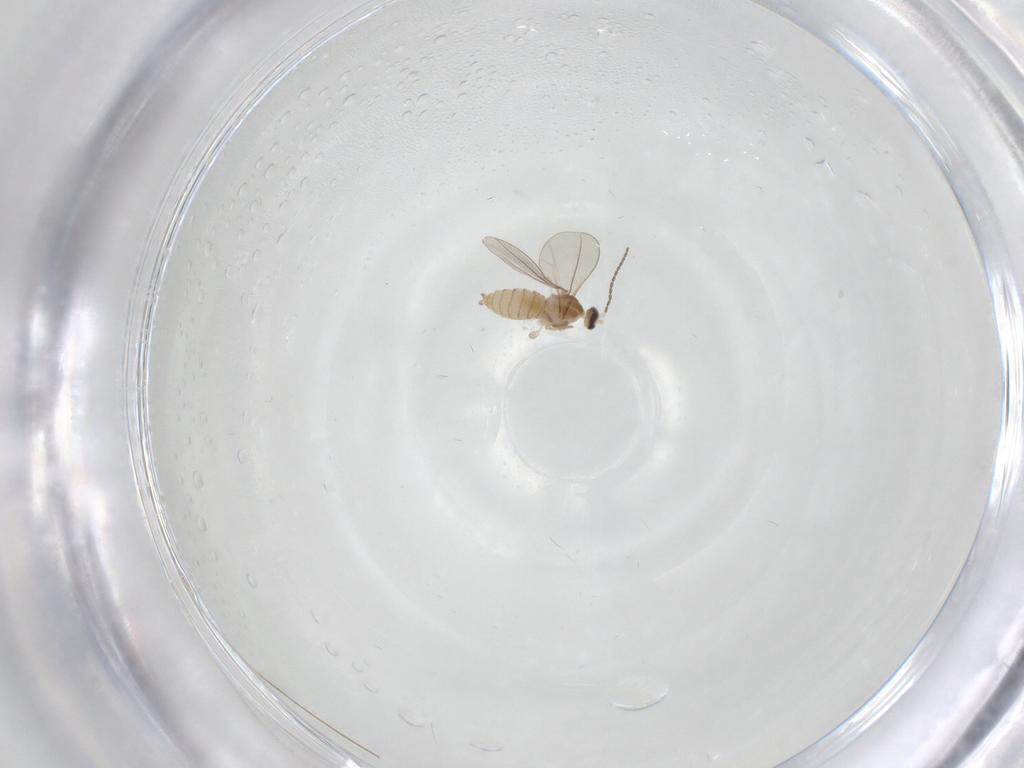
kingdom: Animalia
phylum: Arthropoda
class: Insecta
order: Diptera
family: Cecidomyiidae
